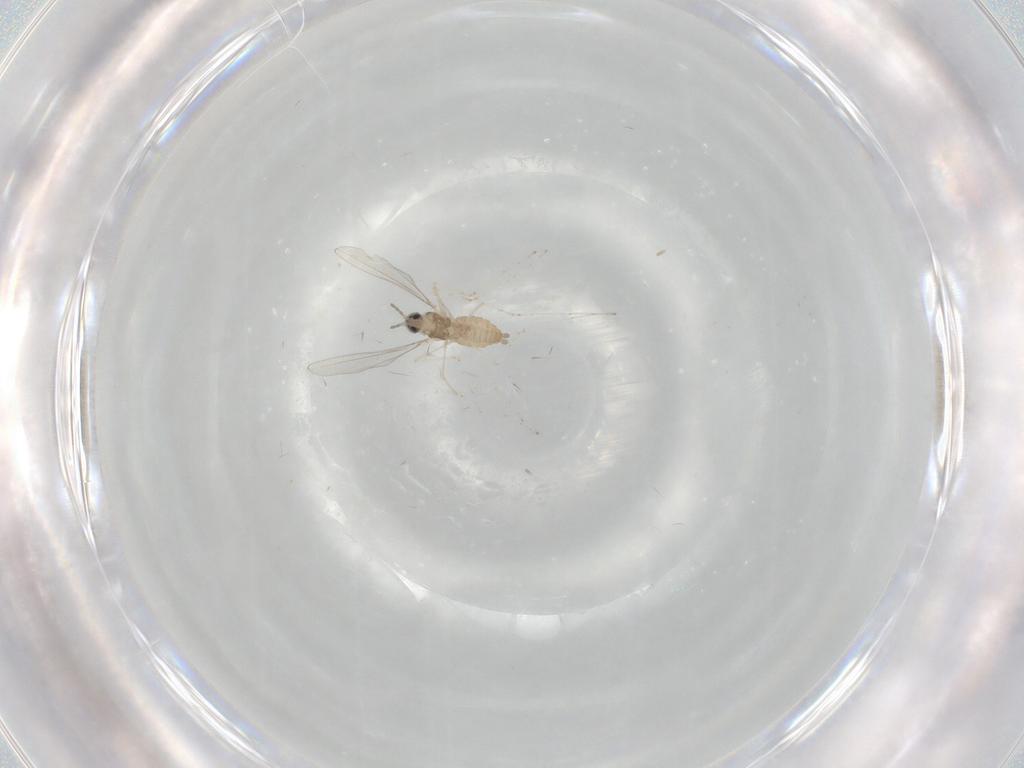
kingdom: Animalia
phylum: Arthropoda
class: Insecta
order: Diptera
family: Cecidomyiidae
